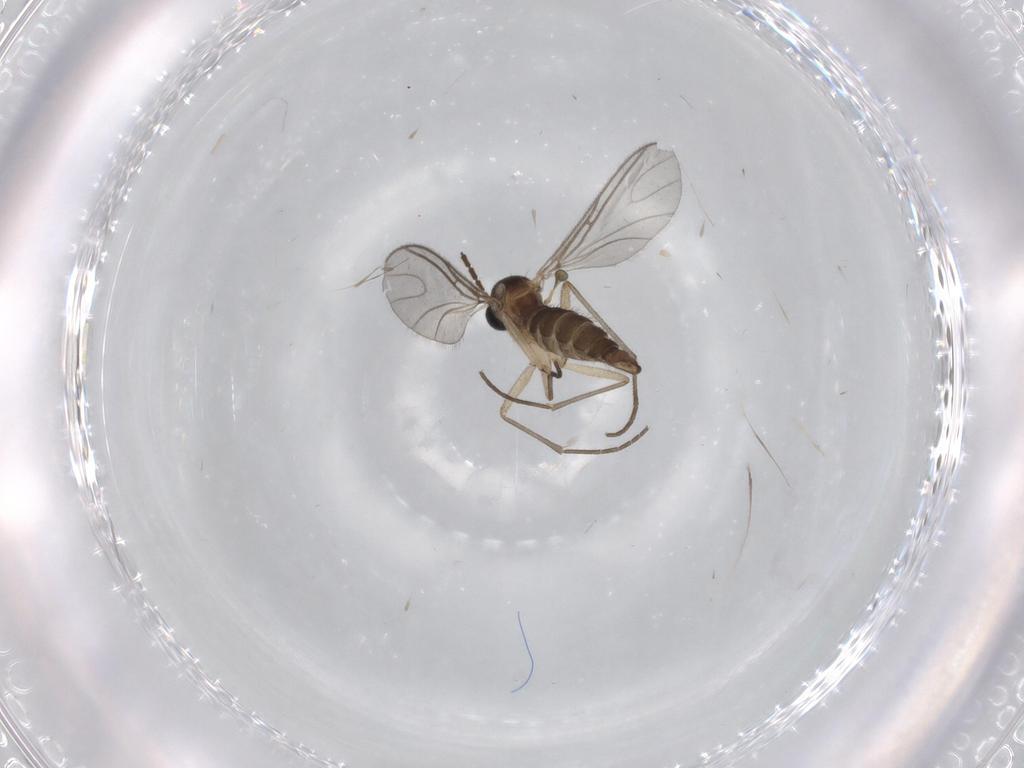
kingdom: Animalia
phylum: Arthropoda
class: Insecta
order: Diptera
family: Sciaridae
